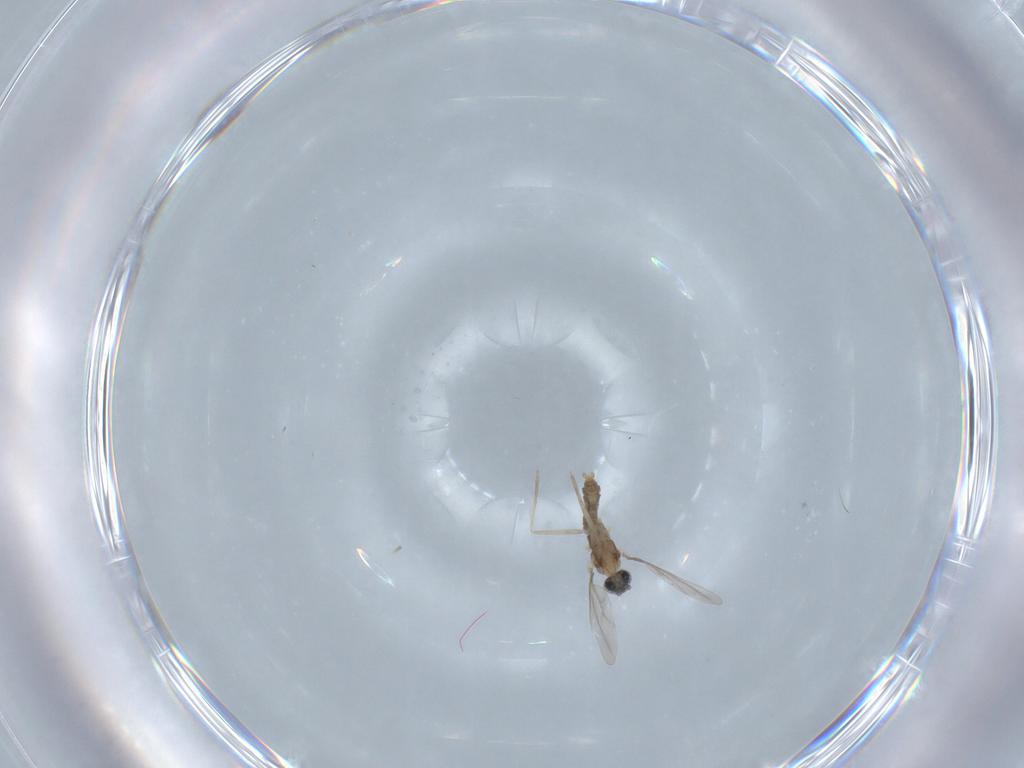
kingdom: Animalia
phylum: Arthropoda
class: Insecta
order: Diptera
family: Cecidomyiidae
